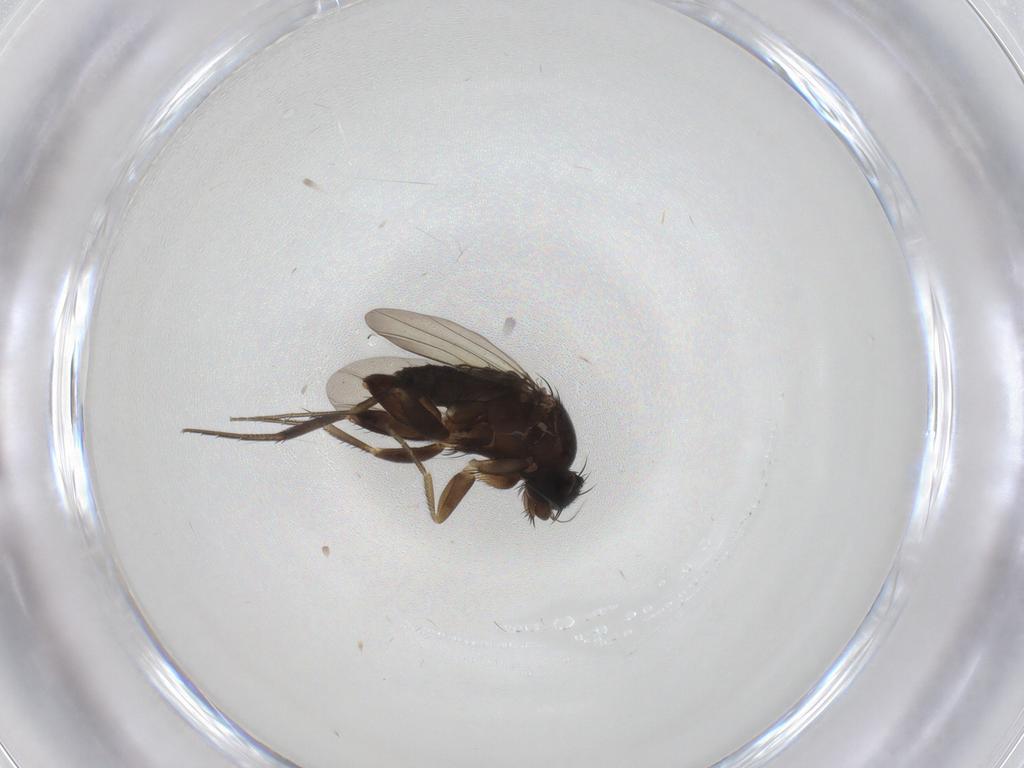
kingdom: Animalia
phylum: Arthropoda
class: Insecta
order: Diptera
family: Phoridae
